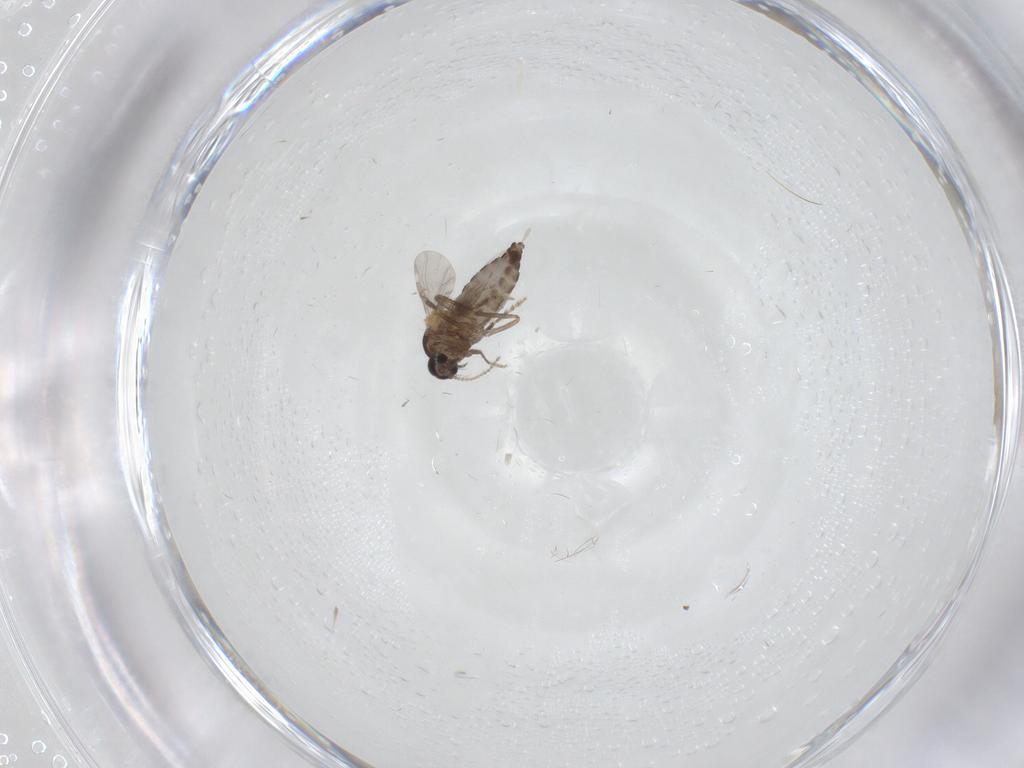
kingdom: Animalia
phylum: Arthropoda
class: Insecta
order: Diptera
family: Ceratopogonidae
